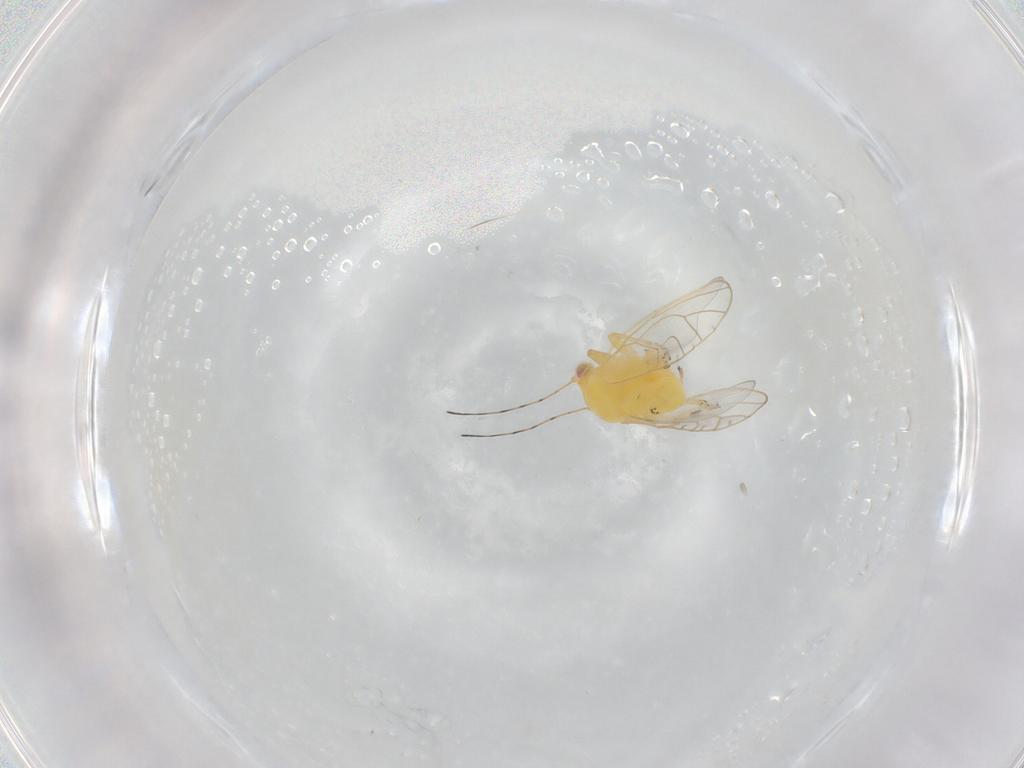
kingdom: Animalia
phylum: Arthropoda
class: Insecta
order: Hemiptera
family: Psyllidae
